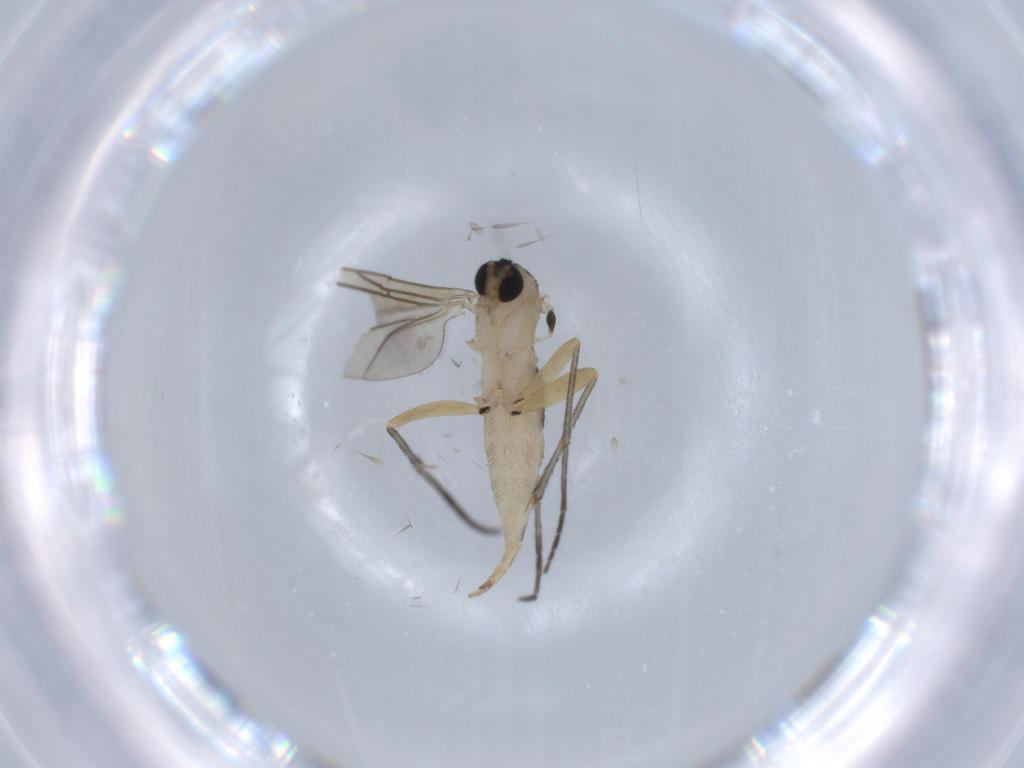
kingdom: Animalia
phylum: Arthropoda
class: Insecta
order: Diptera
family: Sciaridae
